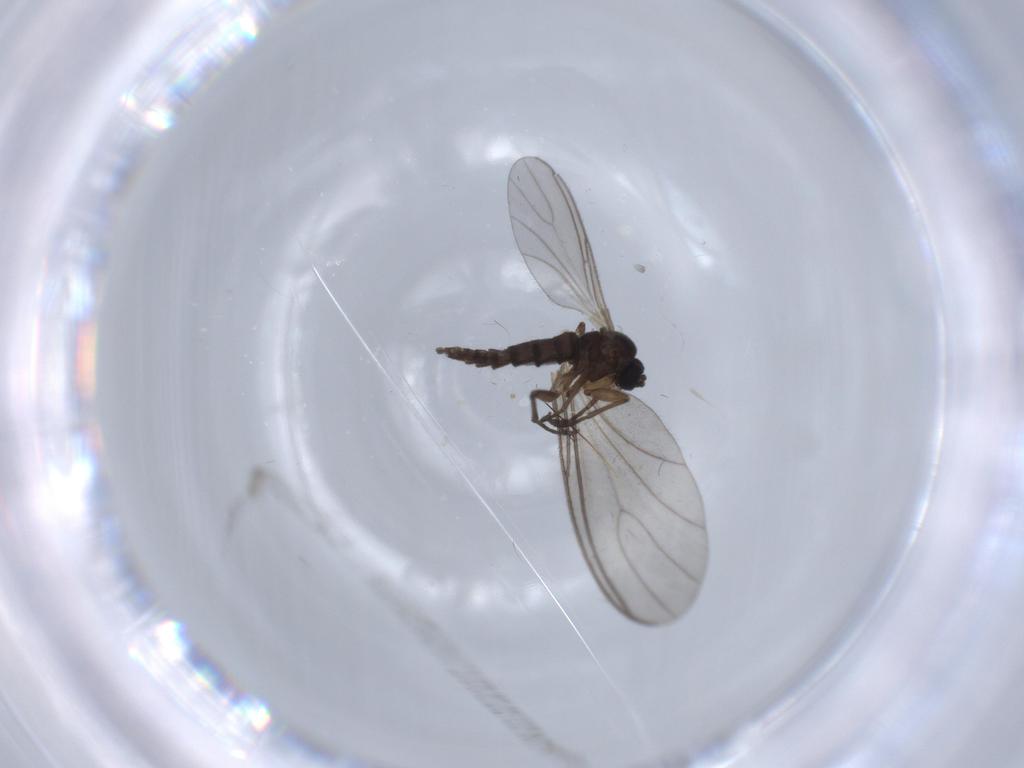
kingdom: Animalia
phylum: Arthropoda
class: Insecta
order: Diptera
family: Sciaridae
